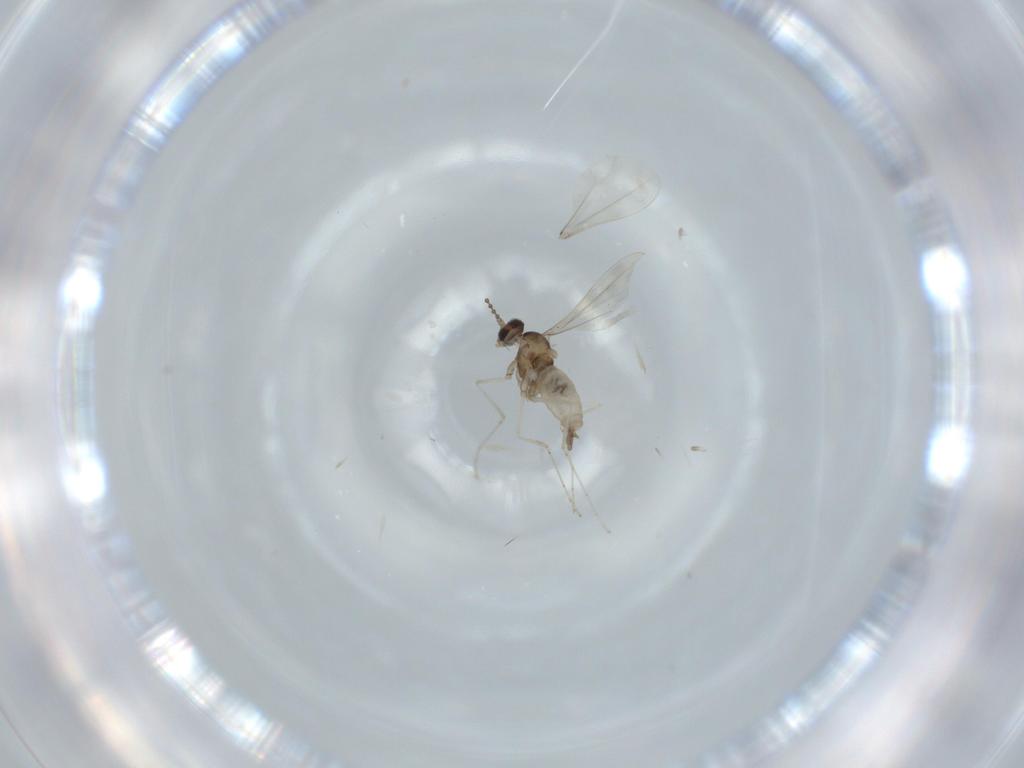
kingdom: Animalia
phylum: Arthropoda
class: Insecta
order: Diptera
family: Cecidomyiidae
